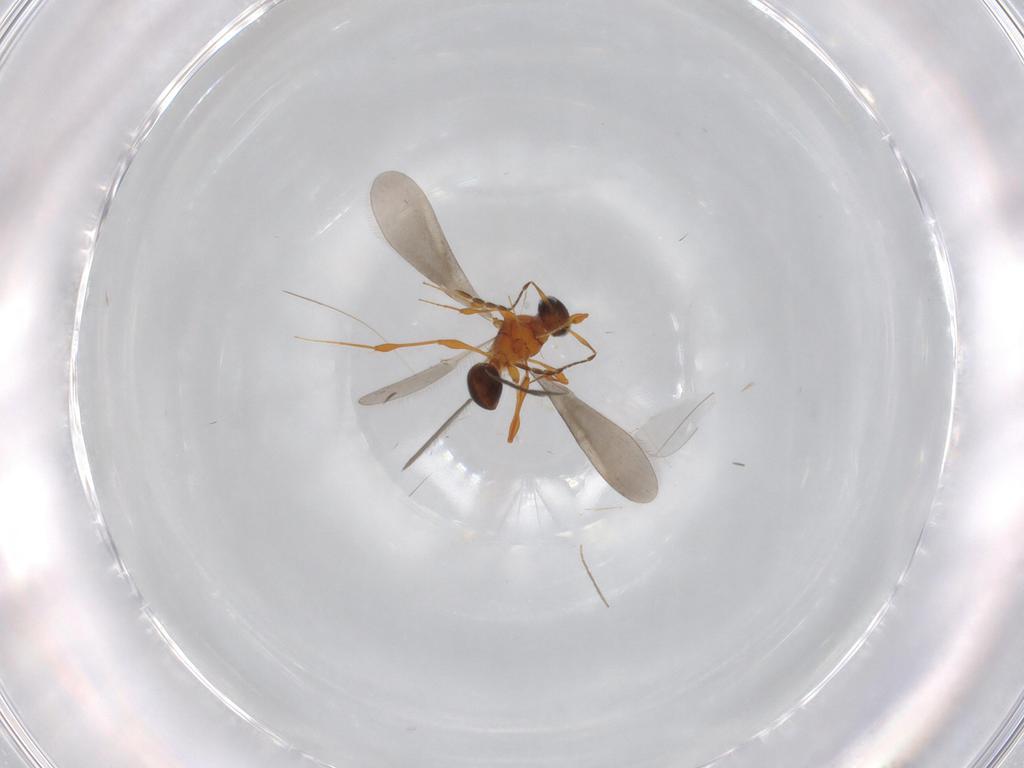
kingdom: Animalia
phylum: Arthropoda
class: Insecta
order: Hymenoptera
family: Platygastridae
